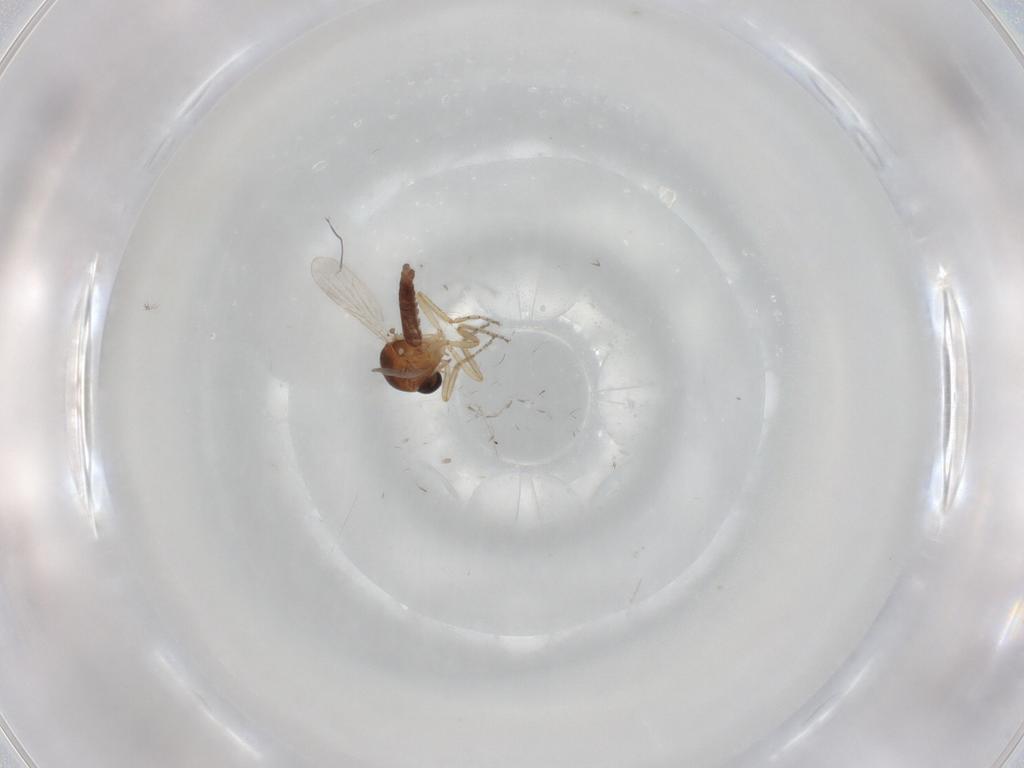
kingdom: Animalia
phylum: Arthropoda
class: Insecta
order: Diptera
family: Ceratopogonidae
